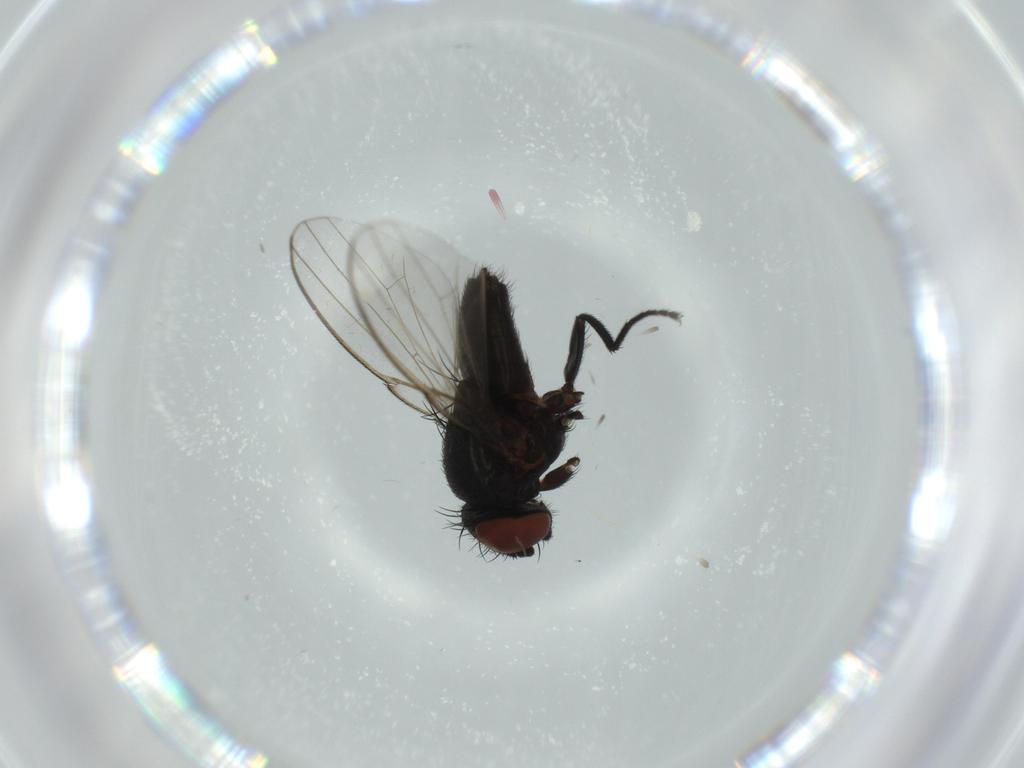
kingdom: Animalia
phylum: Arthropoda
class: Insecta
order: Diptera
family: Milichiidae
